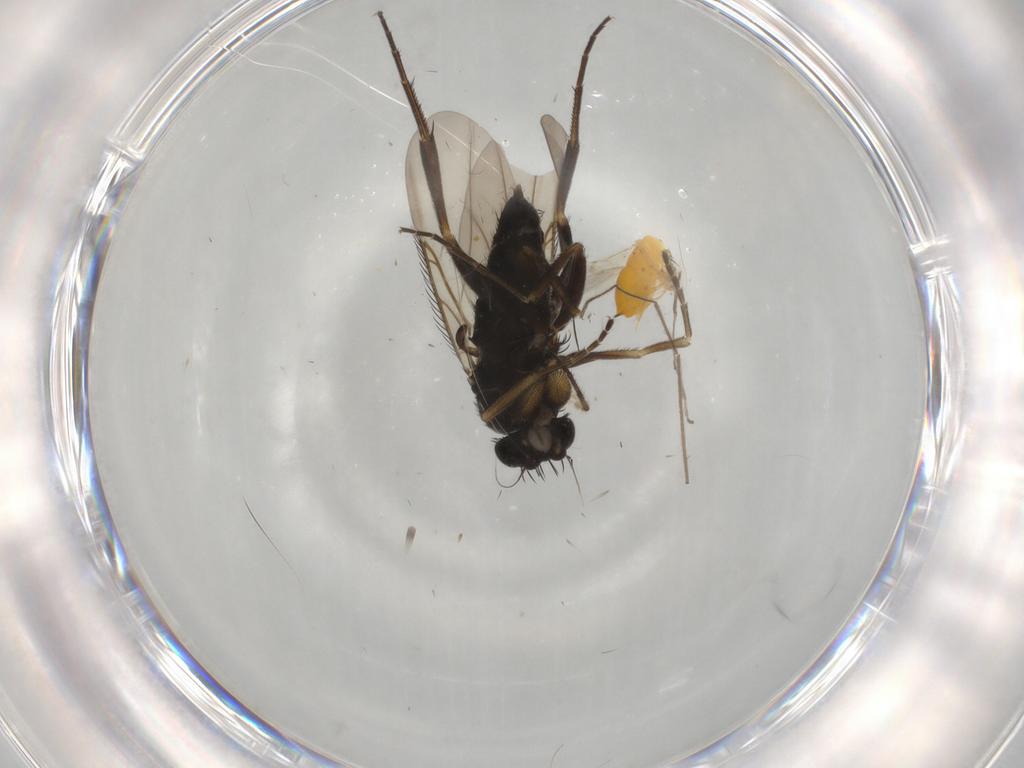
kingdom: Animalia
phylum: Arthropoda
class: Insecta
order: Diptera
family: Phoridae
